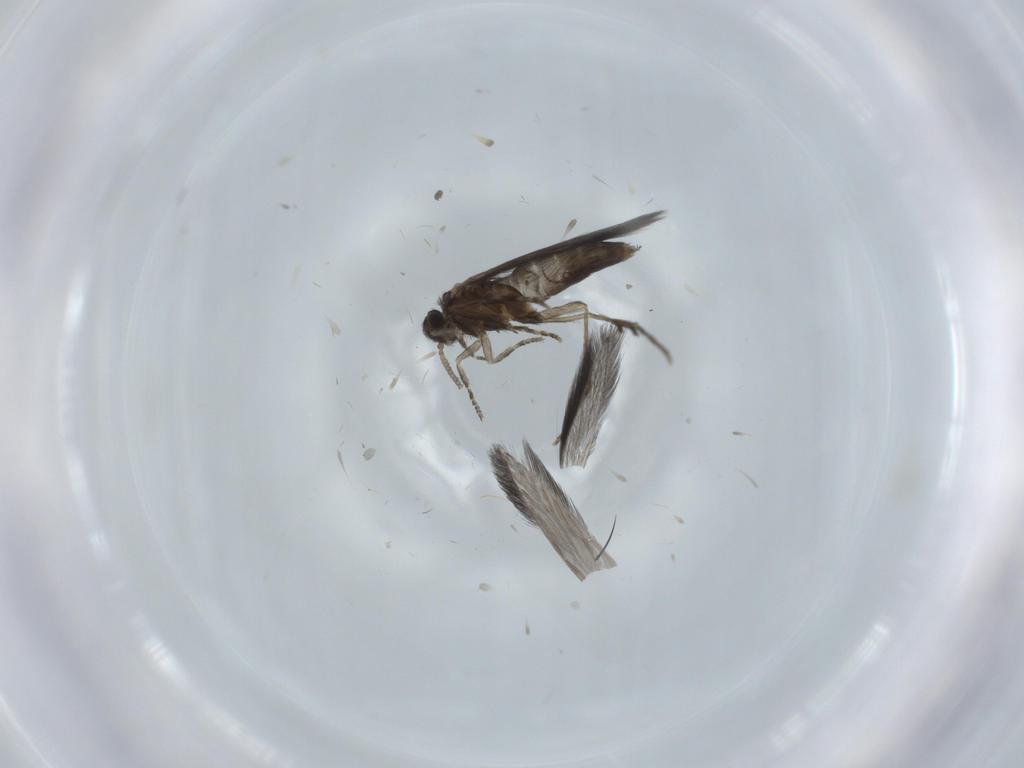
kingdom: Animalia
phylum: Arthropoda
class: Insecta
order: Trichoptera
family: Hydroptilidae
